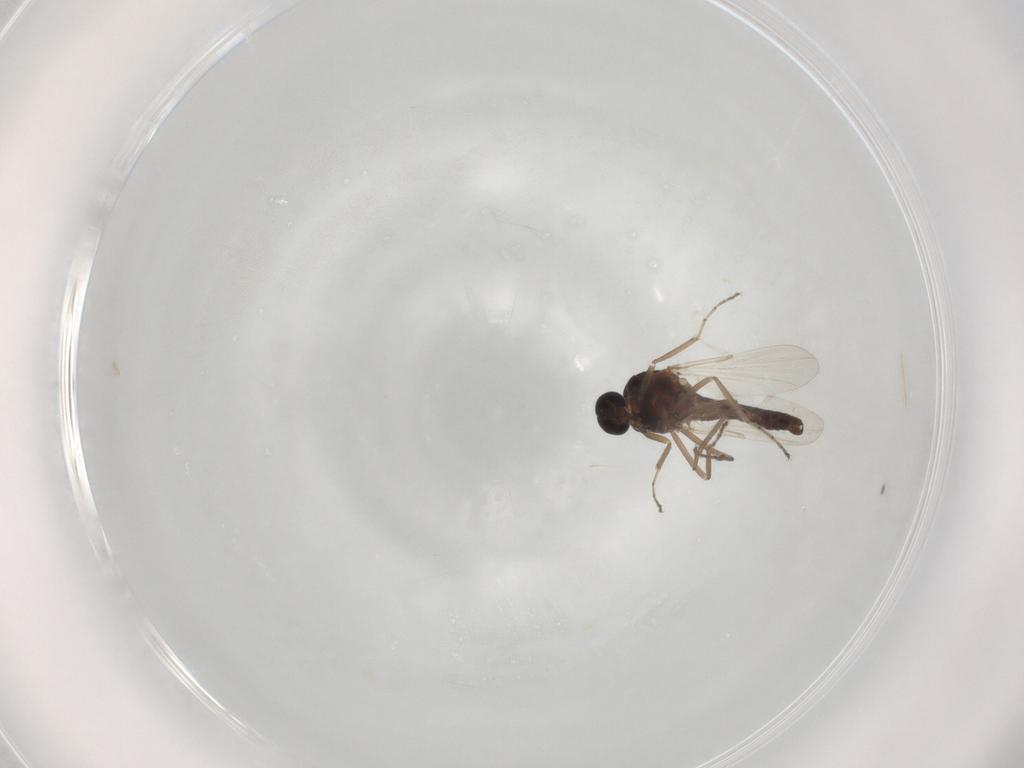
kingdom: Animalia
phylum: Arthropoda
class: Insecta
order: Diptera
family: Ceratopogonidae
